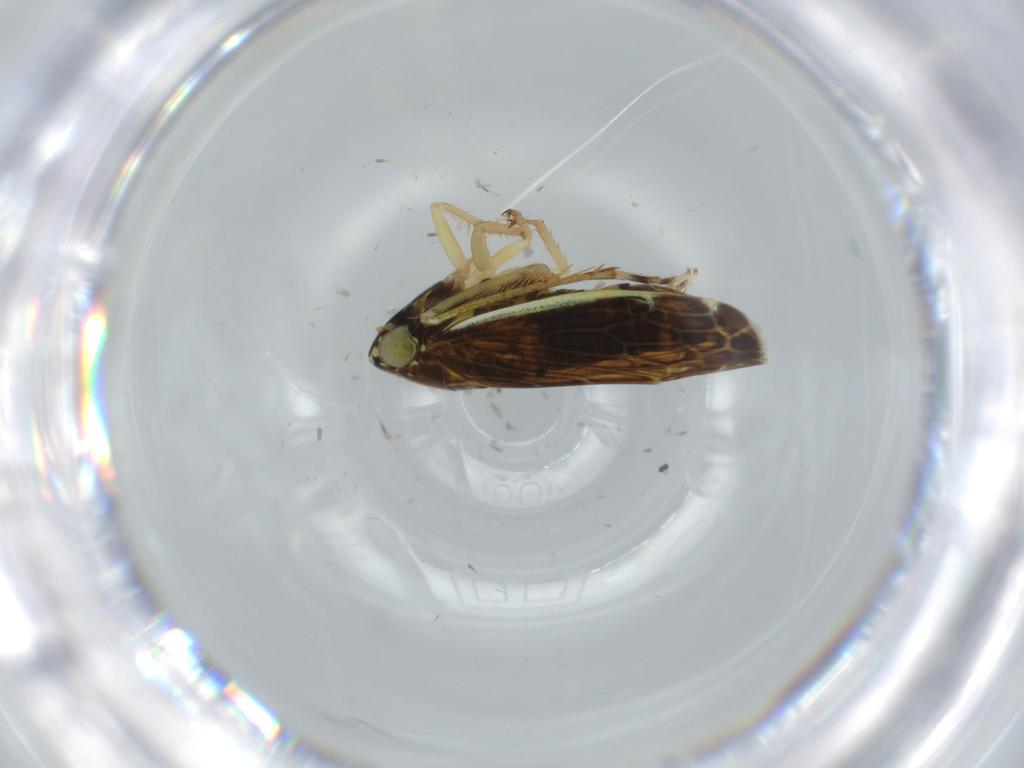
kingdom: Animalia
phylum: Arthropoda
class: Insecta
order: Hemiptera
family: Cicadellidae
